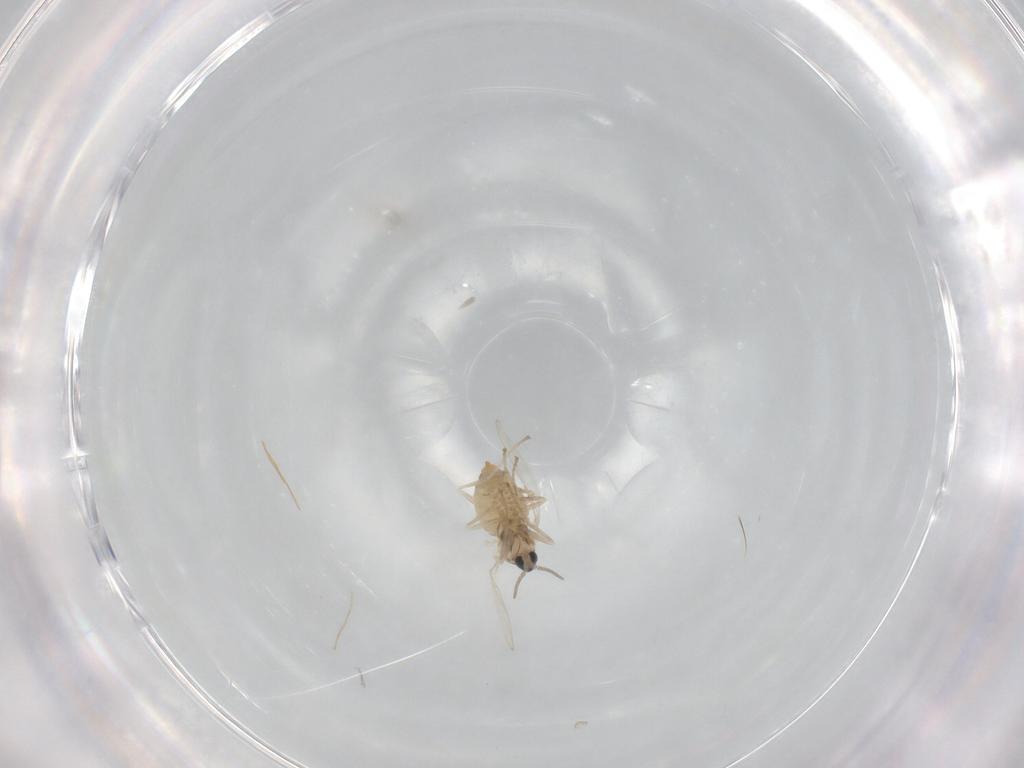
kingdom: Animalia
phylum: Arthropoda
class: Insecta
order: Diptera
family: Cecidomyiidae
